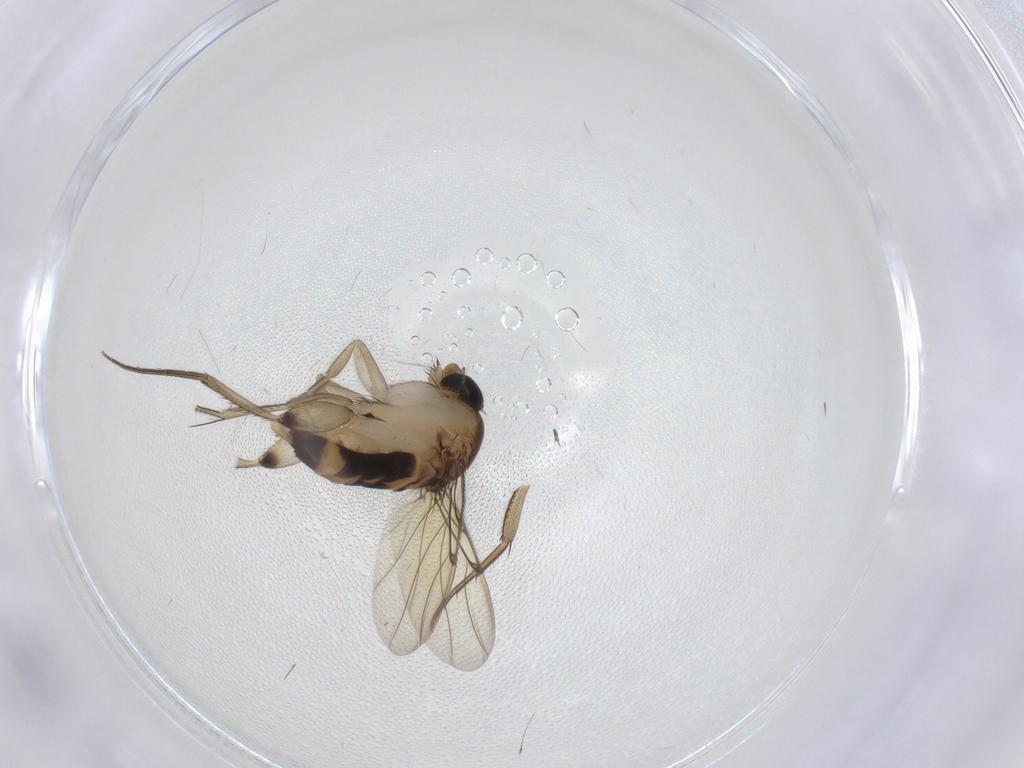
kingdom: Animalia
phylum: Arthropoda
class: Insecta
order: Diptera
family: Phoridae
